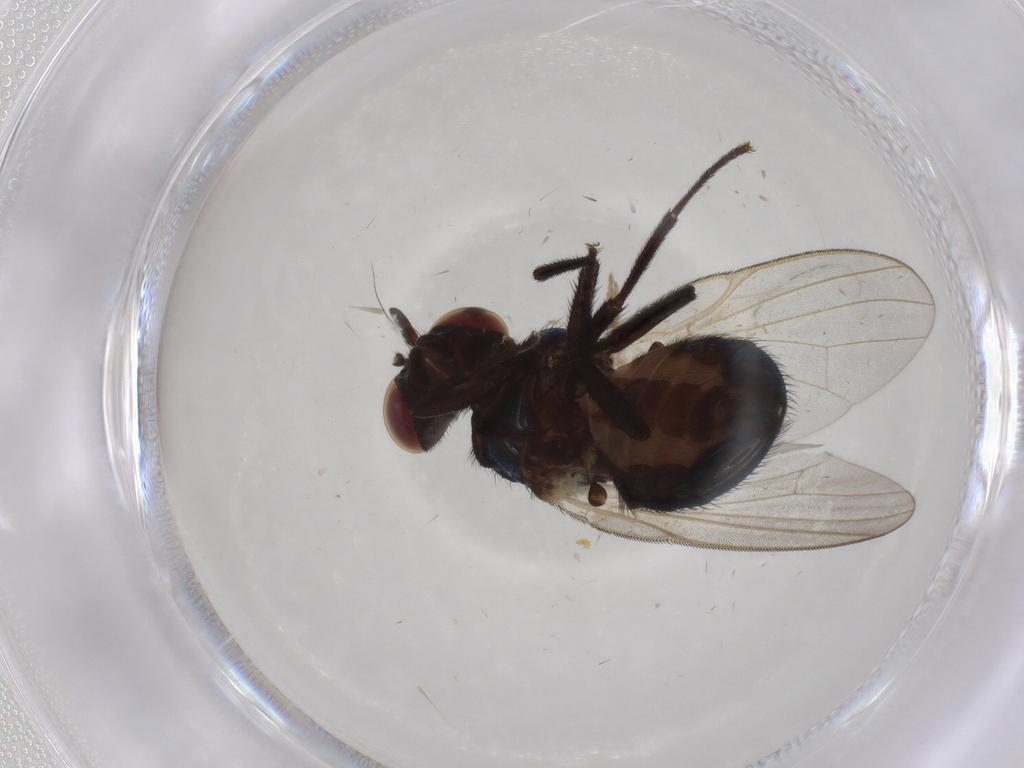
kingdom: Animalia
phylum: Arthropoda
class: Insecta
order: Diptera
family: Lonchaeidae
